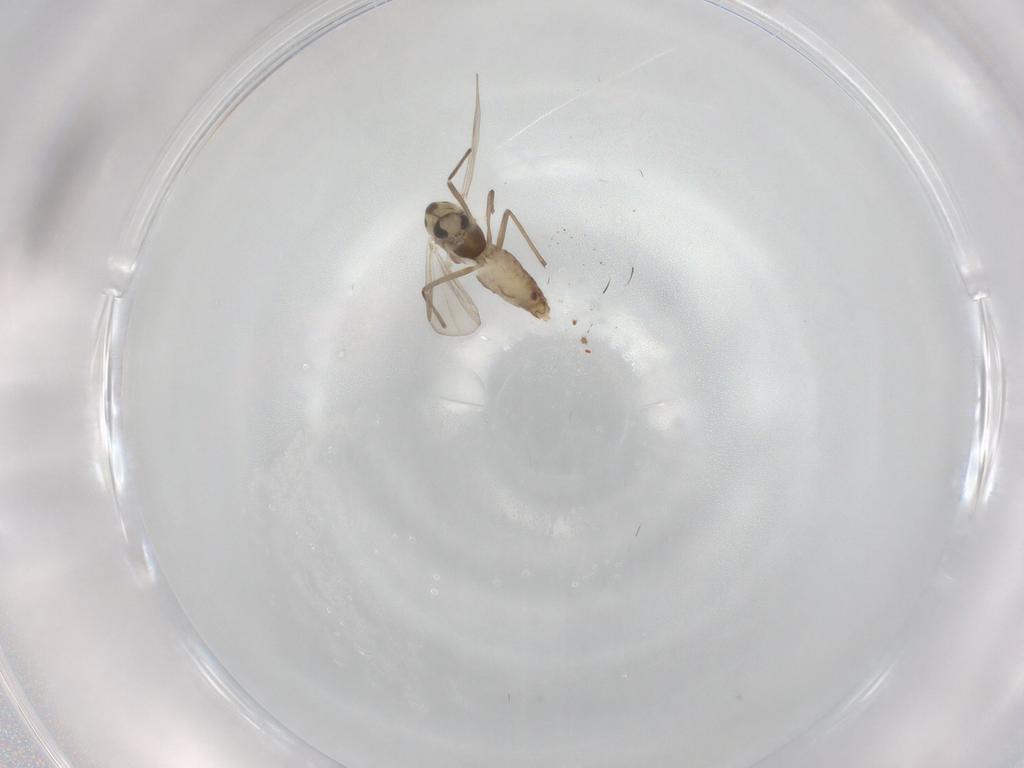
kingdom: Animalia
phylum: Arthropoda
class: Insecta
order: Diptera
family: Chironomidae
